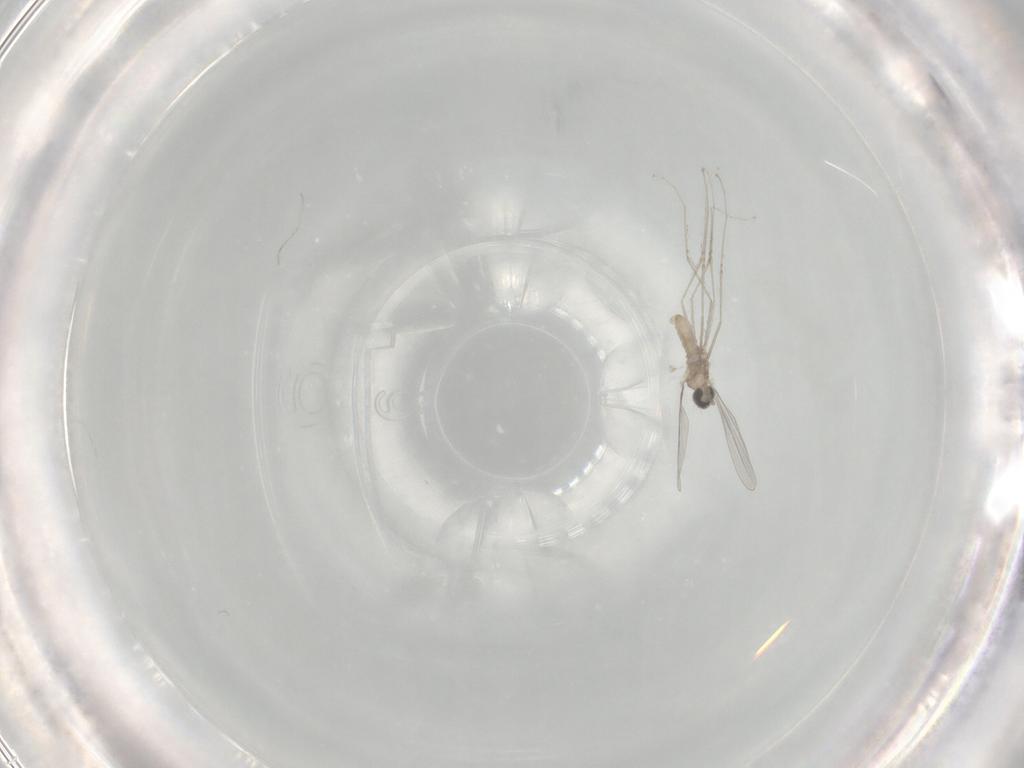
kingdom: Animalia
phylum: Arthropoda
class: Insecta
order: Diptera
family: Cecidomyiidae
